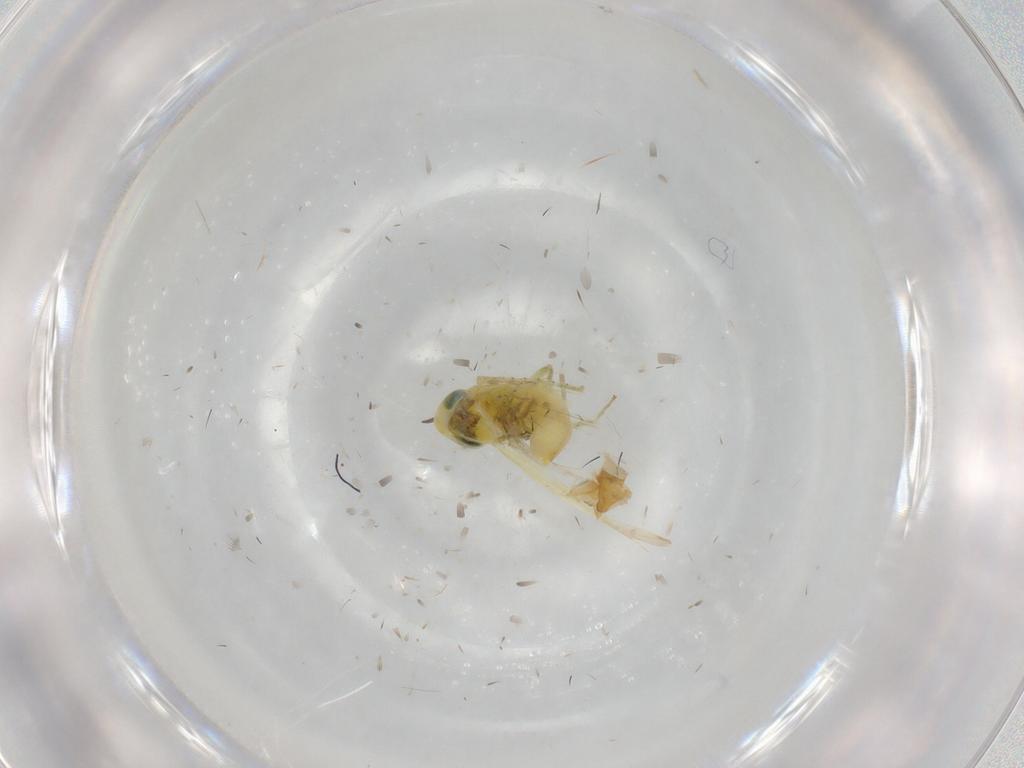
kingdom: Animalia
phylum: Arthropoda
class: Insecta
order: Hemiptera
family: Cicadellidae
